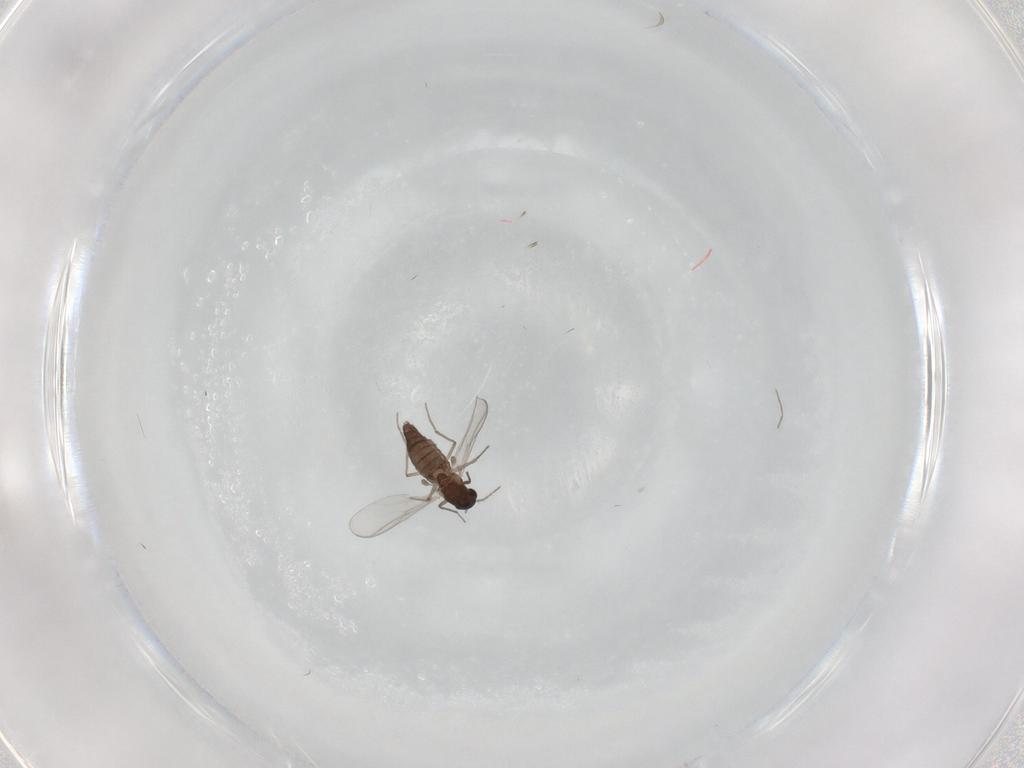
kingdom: Animalia
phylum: Arthropoda
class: Insecta
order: Diptera
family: Chironomidae
